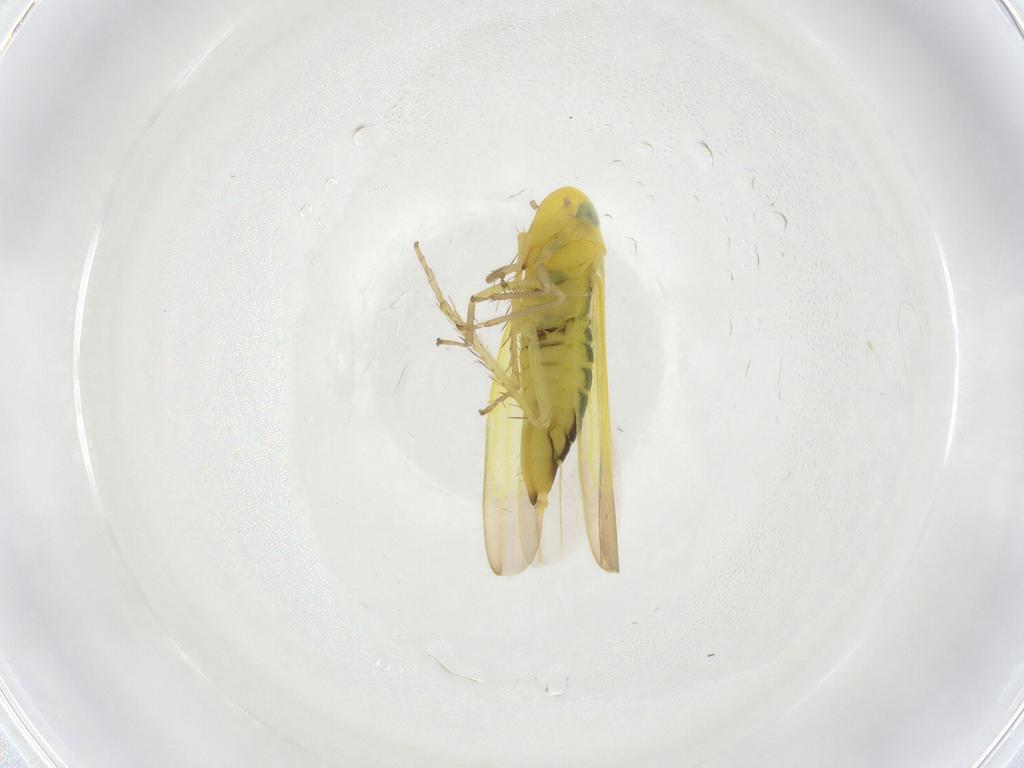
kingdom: Animalia
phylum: Arthropoda
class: Insecta
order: Hemiptera
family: Cicadellidae
